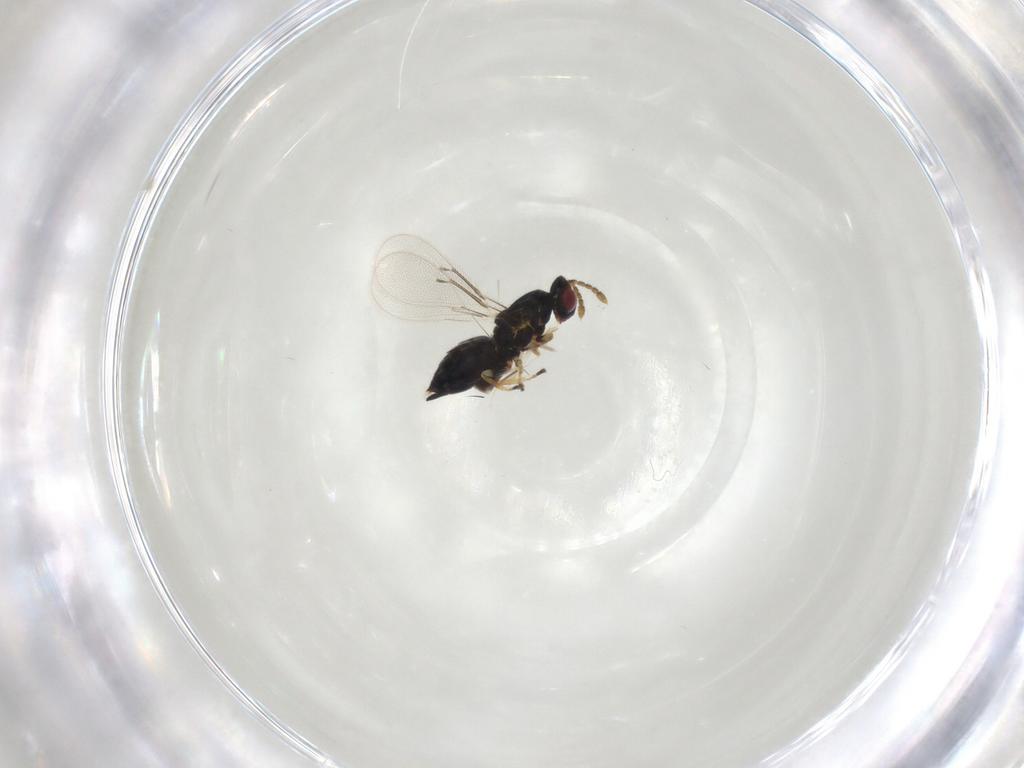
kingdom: Animalia
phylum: Arthropoda
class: Insecta
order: Hymenoptera
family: Eulophidae
